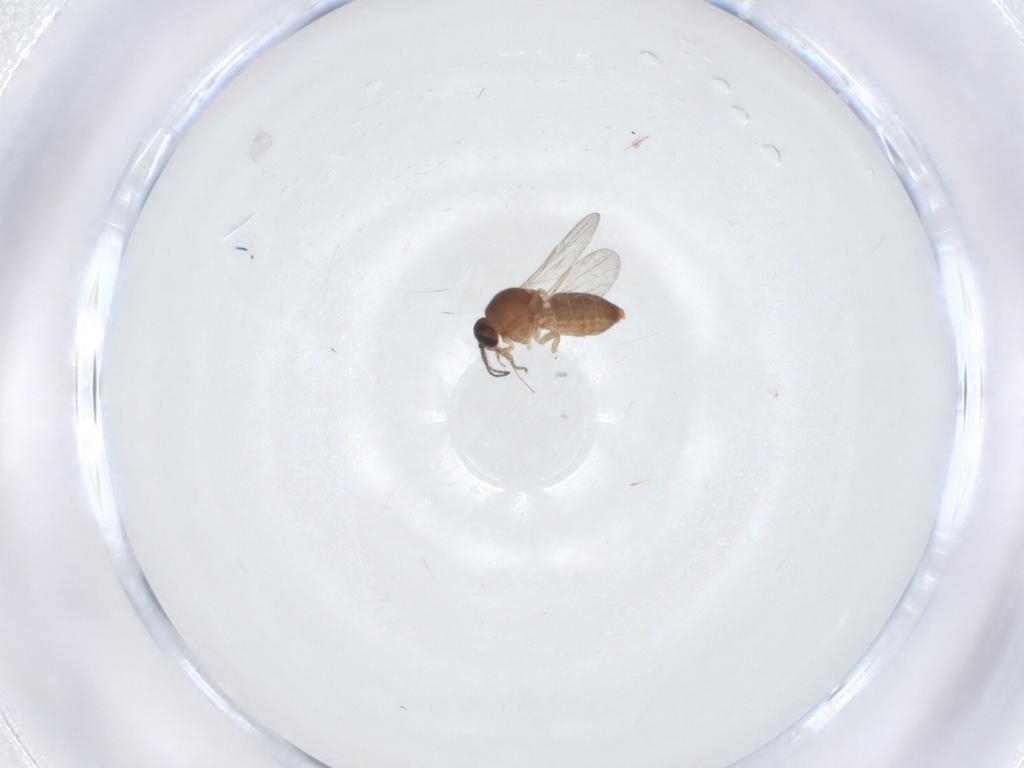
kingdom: Animalia
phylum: Arthropoda
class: Insecta
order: Diptera
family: Ceratopogonidae
